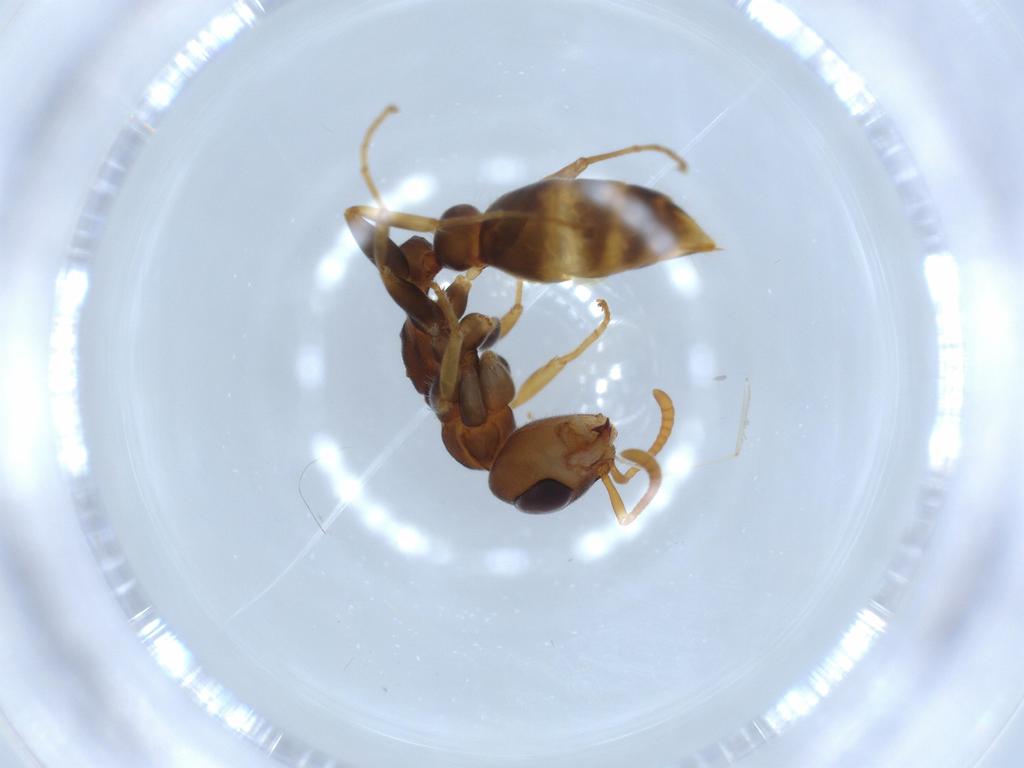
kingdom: Animalia
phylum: Arthropoda
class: Insecta
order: Hymenoptera
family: Formicidae
